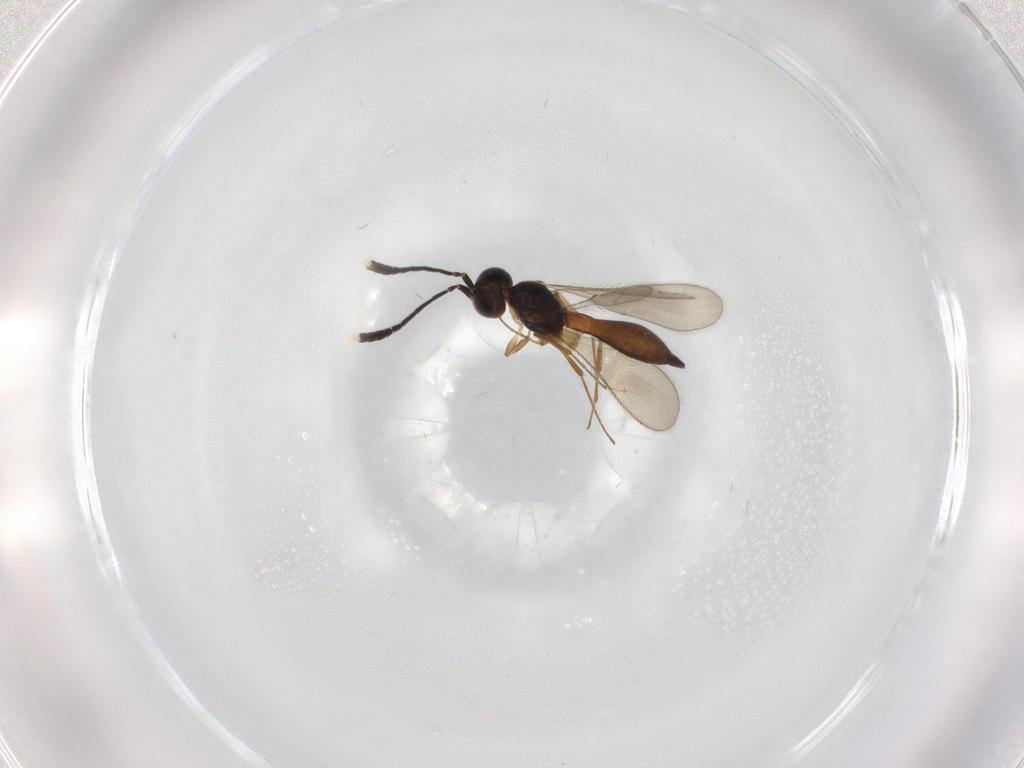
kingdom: Animalia
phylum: Arthropoda
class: Insecta
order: Hymenoptera
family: Scelionidae
